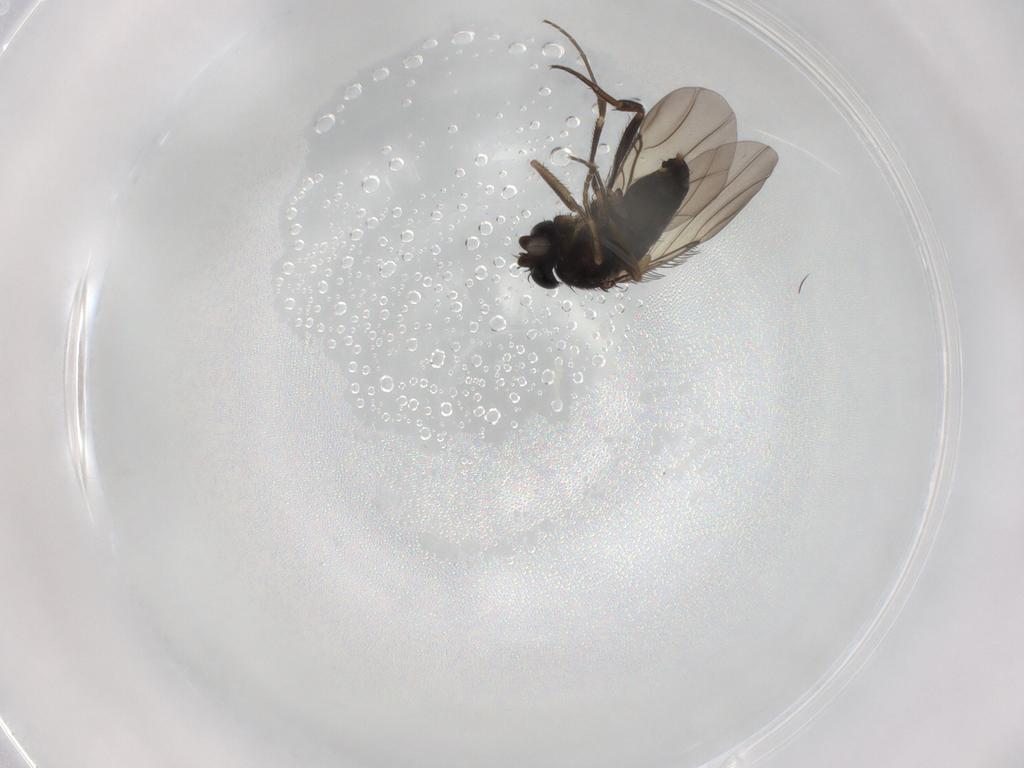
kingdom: Animalia
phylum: Arthropoda
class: Insecta
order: Diptera
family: Phoridae
